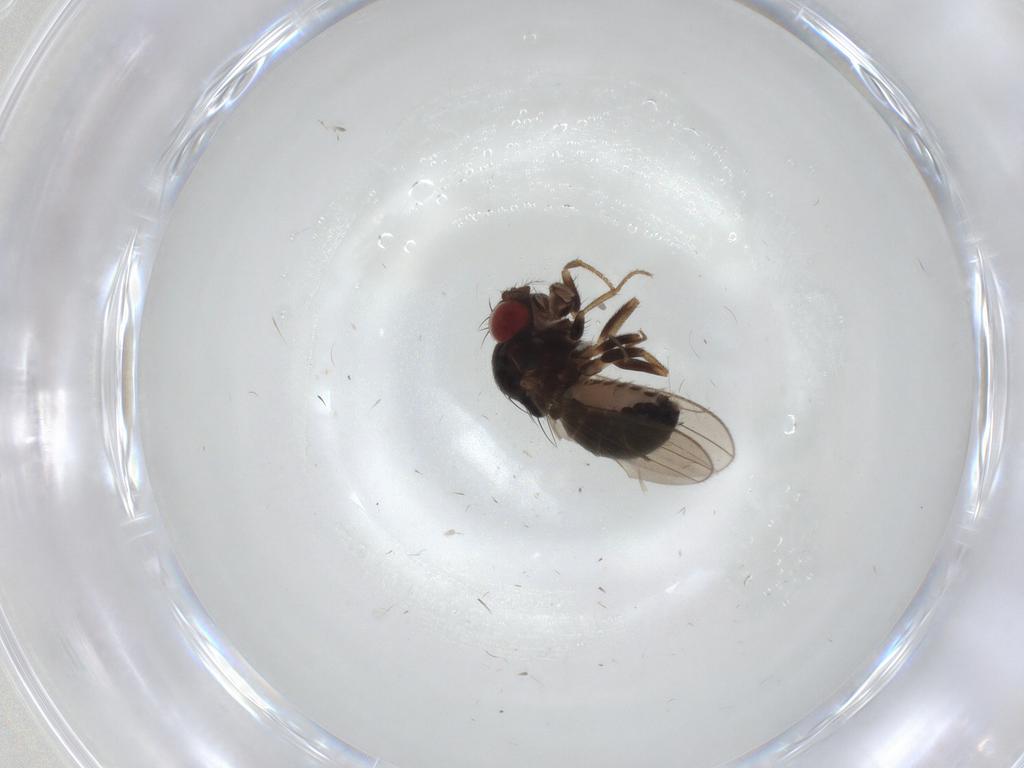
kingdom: Animalia
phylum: Arthropoda
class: Insecta
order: Diptera
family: Drosophilidae
